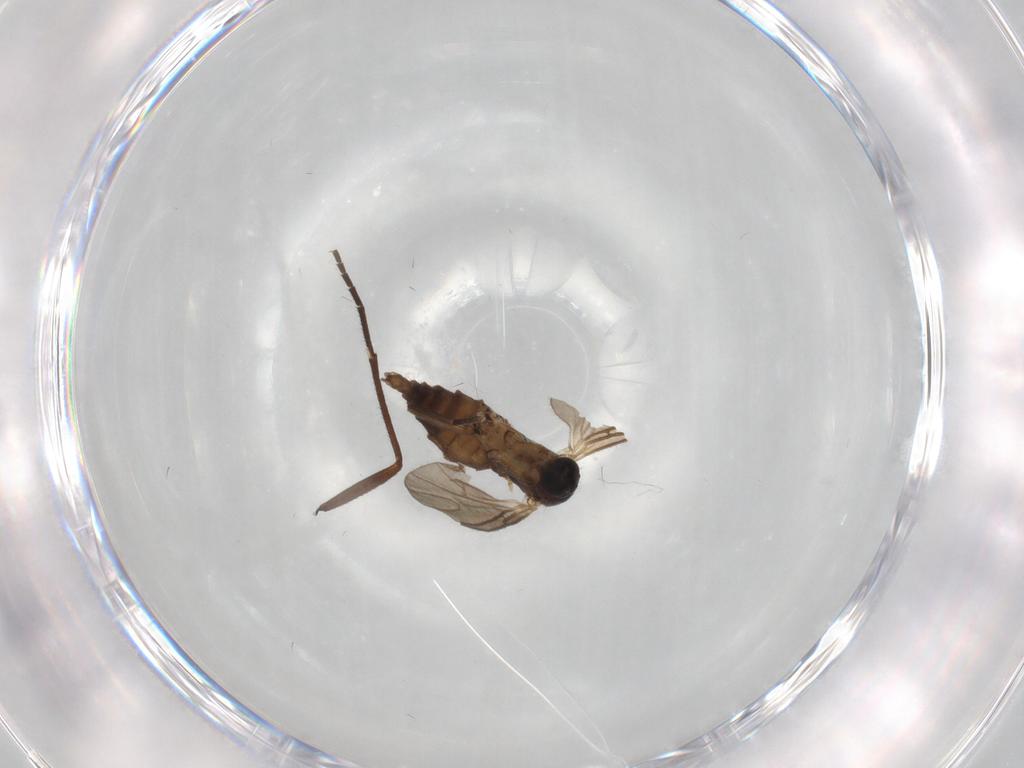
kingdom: Animalia
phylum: Arthropoda
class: Insecta
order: Diptera
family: Sciaridae
